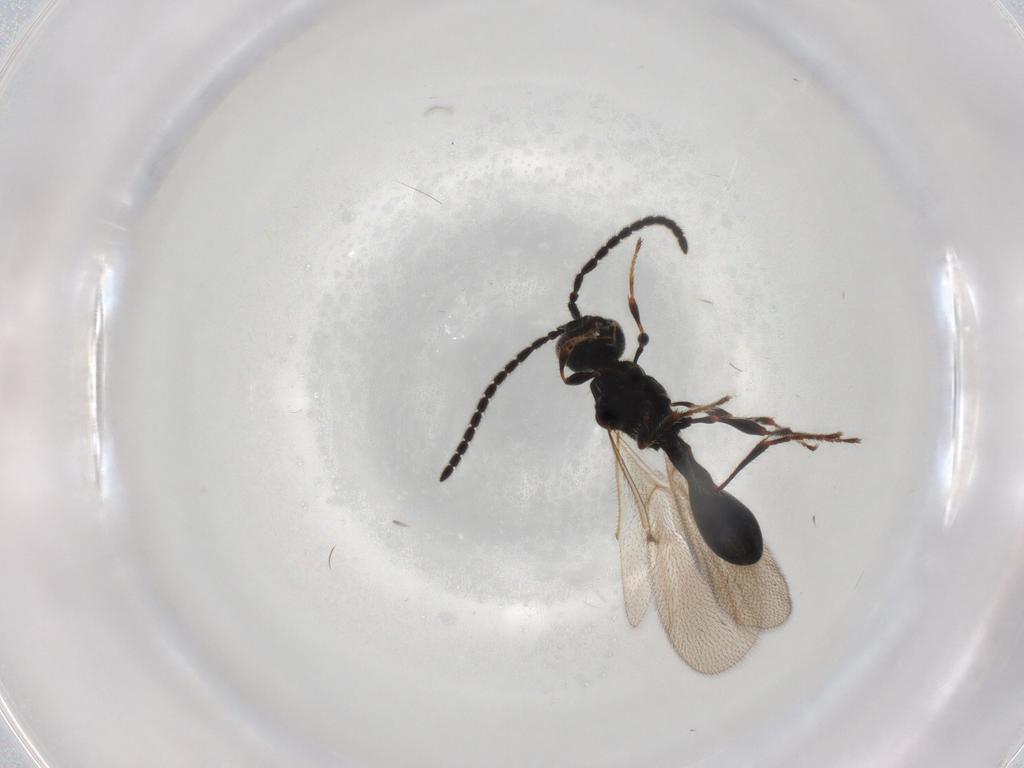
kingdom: Animalia
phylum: Arthropoda
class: Insecta
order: Hymenoptera
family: Diapriidae
